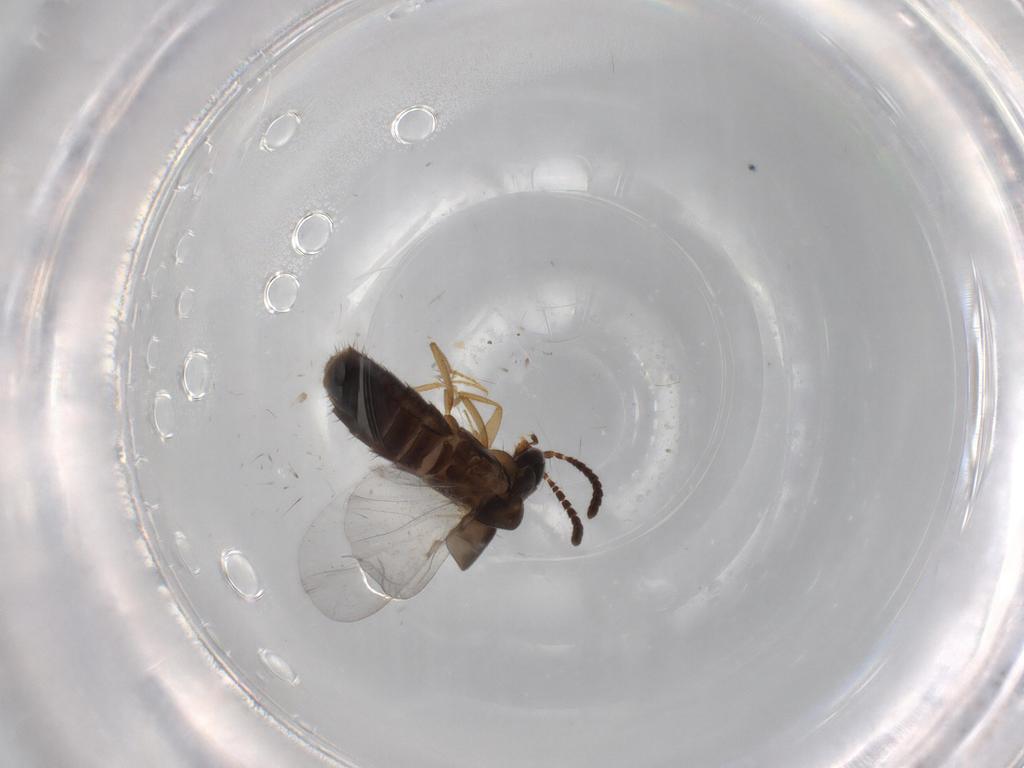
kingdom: Animalia
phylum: Arthropoda
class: Insecta
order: Coleoptera
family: Staphylinidae
